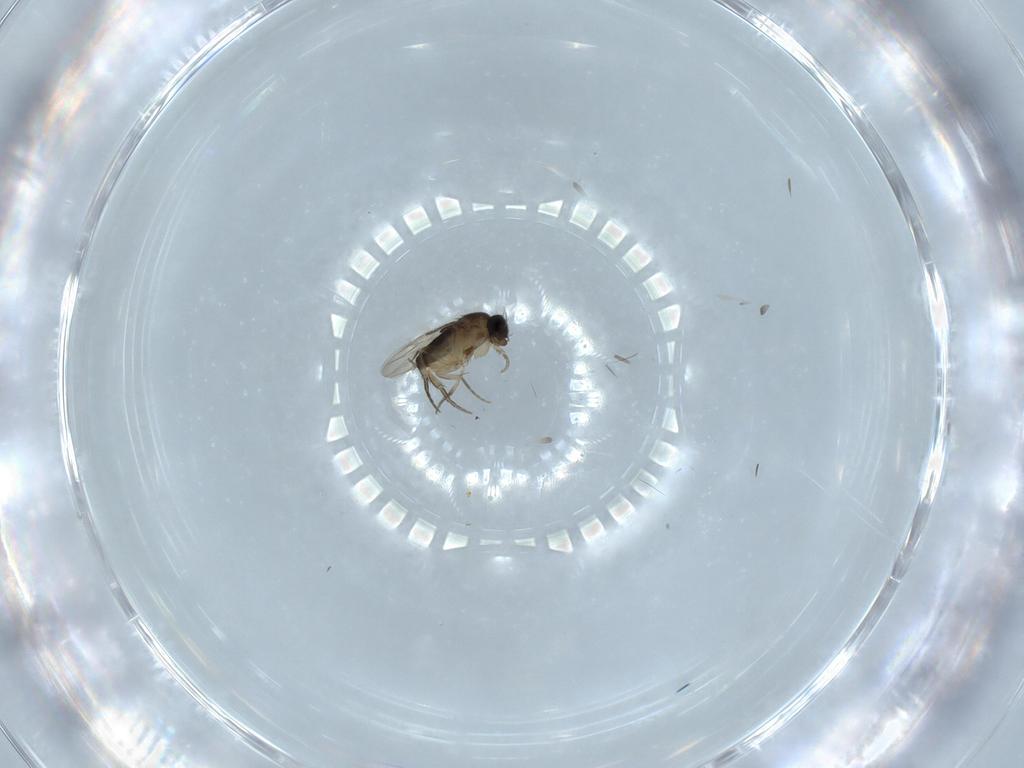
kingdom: Animalia
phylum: Arthropoda
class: Insecta
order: Diptera
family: Phoridae
